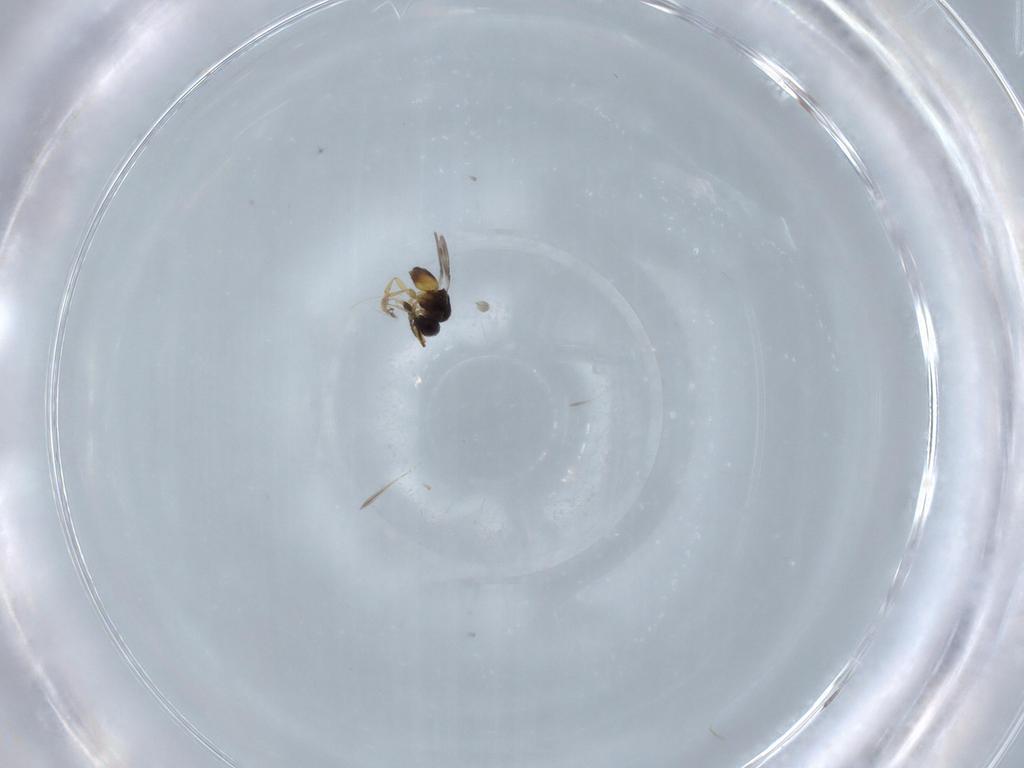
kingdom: Animalia
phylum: Arthropoda
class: Insecta
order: Hymenoptera
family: Ceraphronidae
